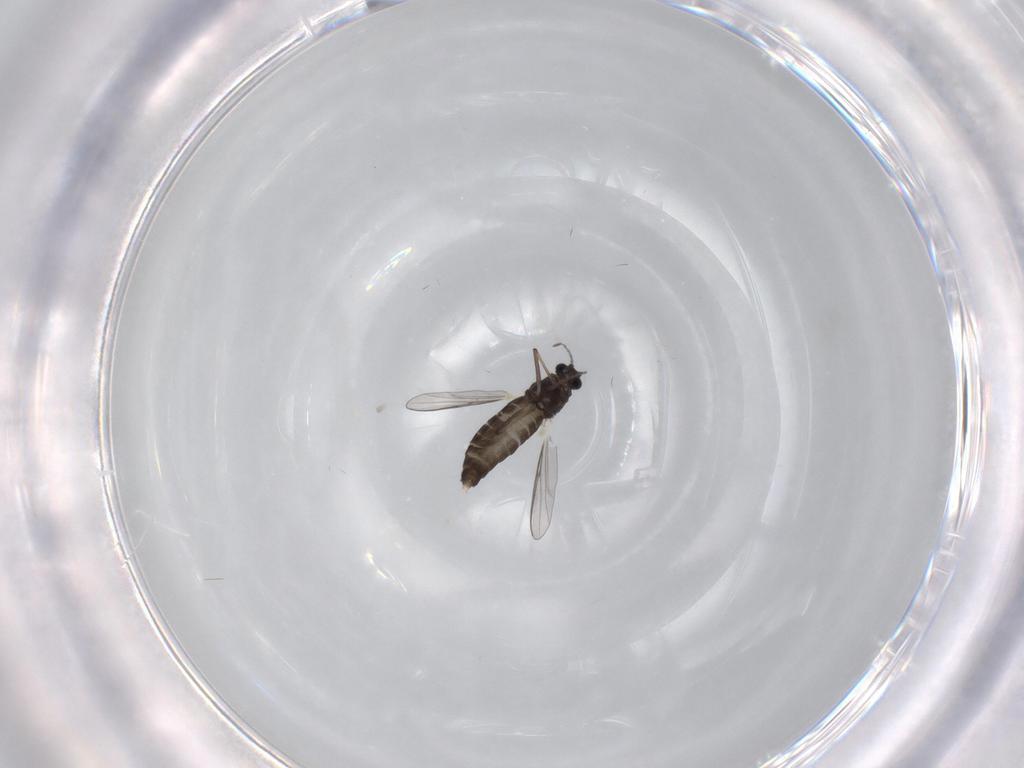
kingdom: Animalia
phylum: Arthropoda
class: Insecta
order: Diptera
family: Chironomidae
